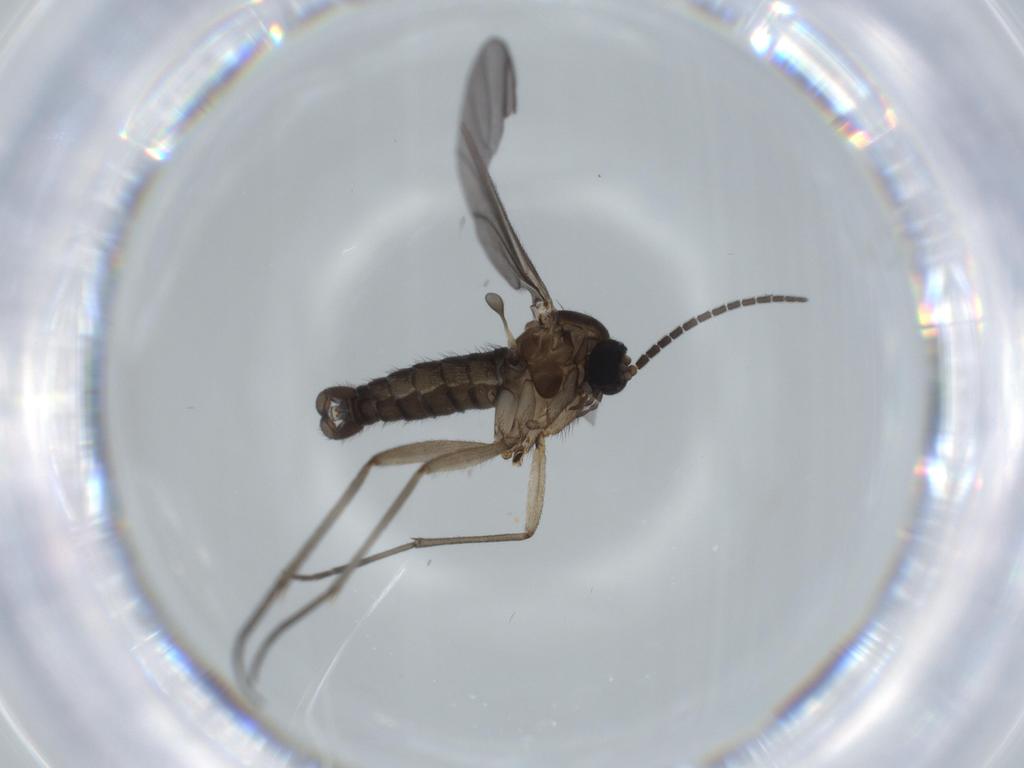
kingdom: Animalia
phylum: Arthropoda
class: Insecta
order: Diptera
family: Sciaridae
